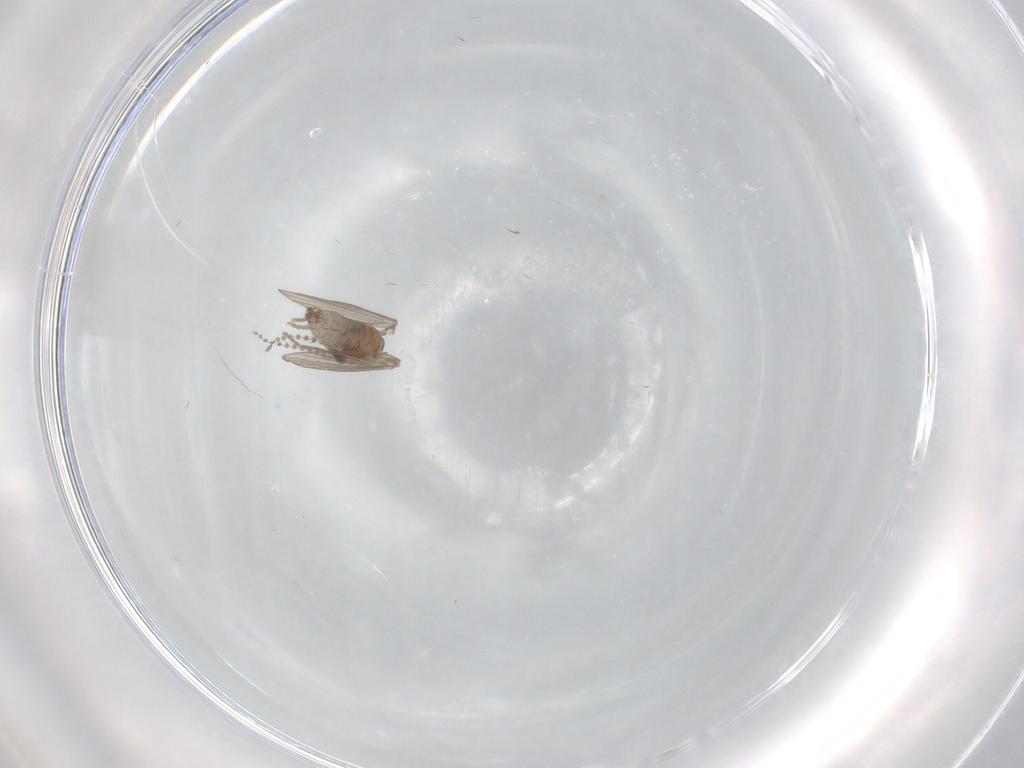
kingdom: Animalia
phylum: Arthropoda
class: Insecta
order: Diptera
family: Phoridae
